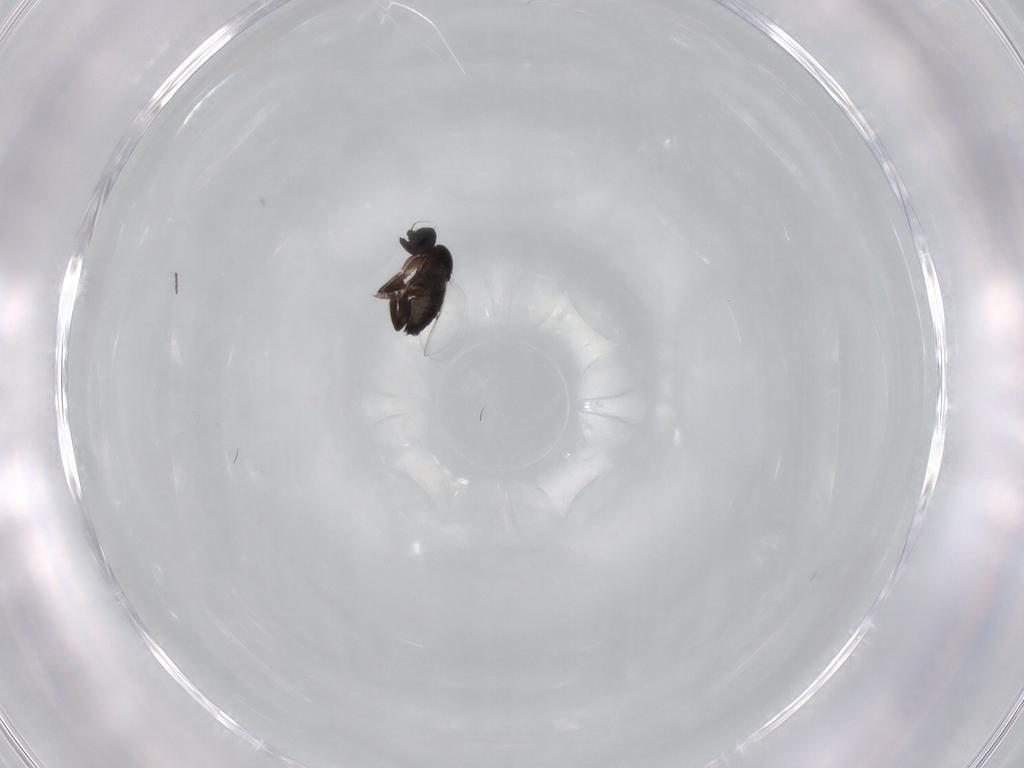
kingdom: Animalia
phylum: Arthropoda
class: Insecta
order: Diptera
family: Phoridae
